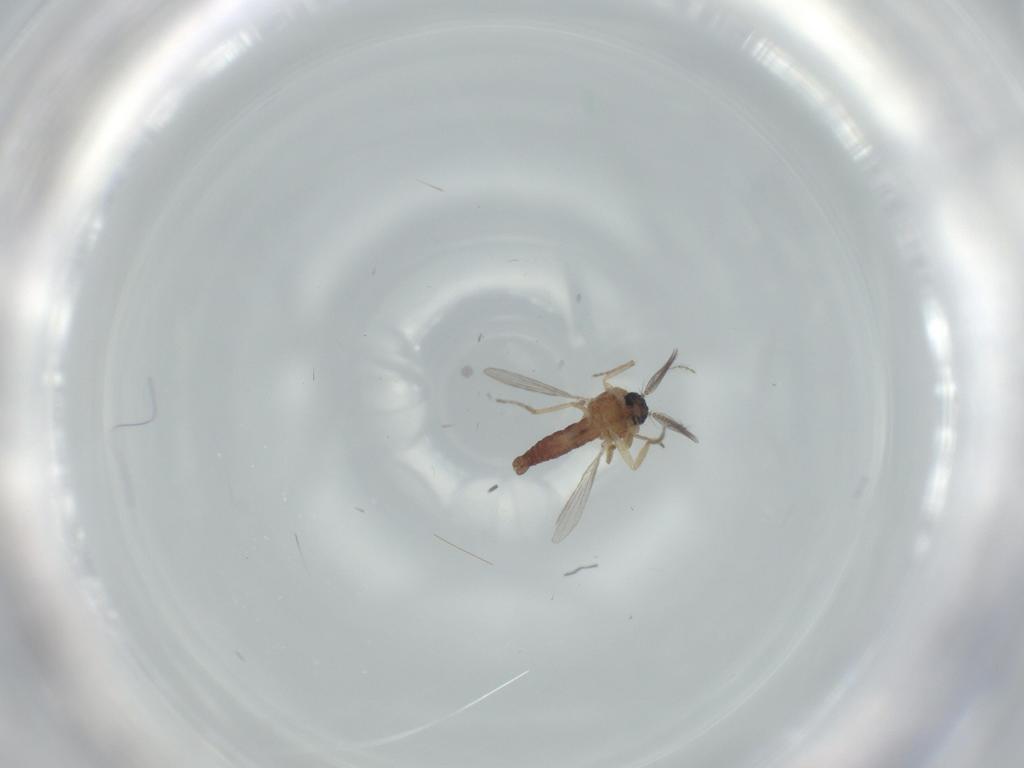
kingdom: Animalia
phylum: Arthropoda
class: Insecta
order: Diptera
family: Ceratopogonidae
